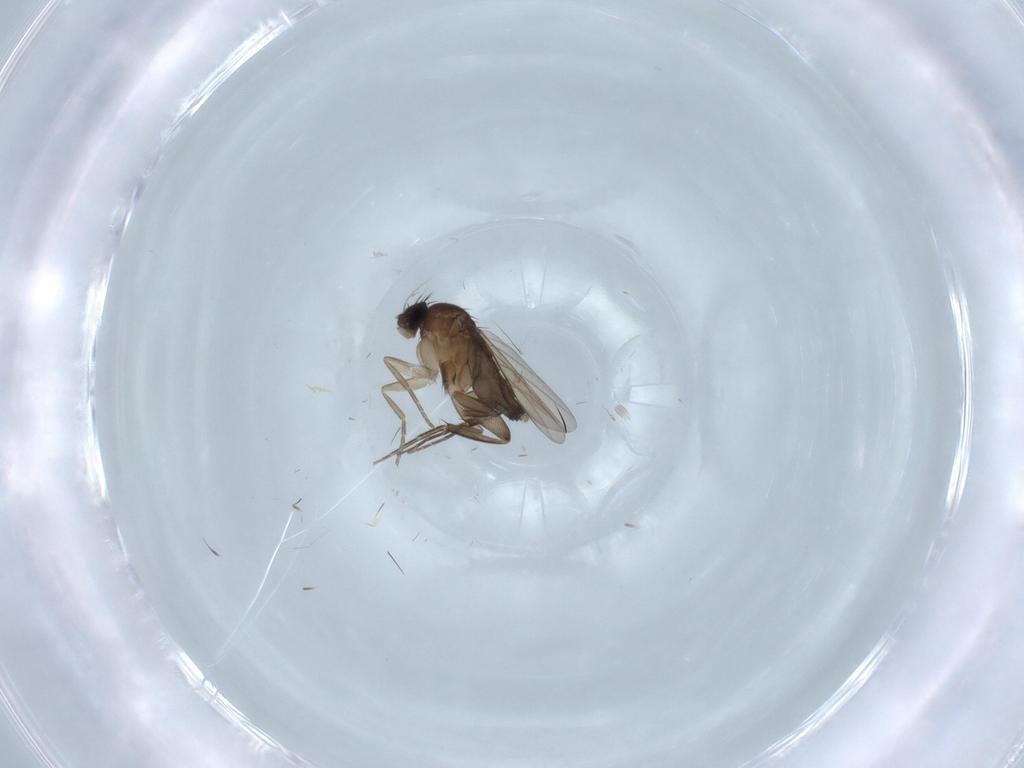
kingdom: Animalia
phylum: Arthropoda
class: Insecta
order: Diptera
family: Phoridae
